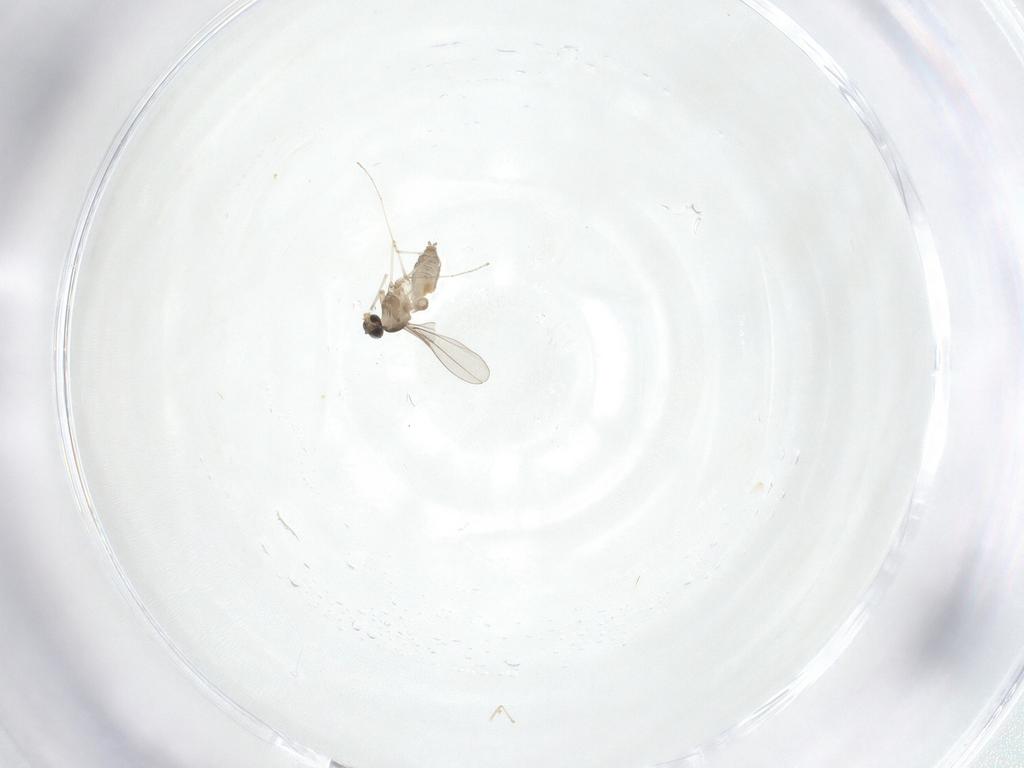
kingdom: Animalia
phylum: Arthropoda
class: Insecta
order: Diptera
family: Cecidomyiidae
